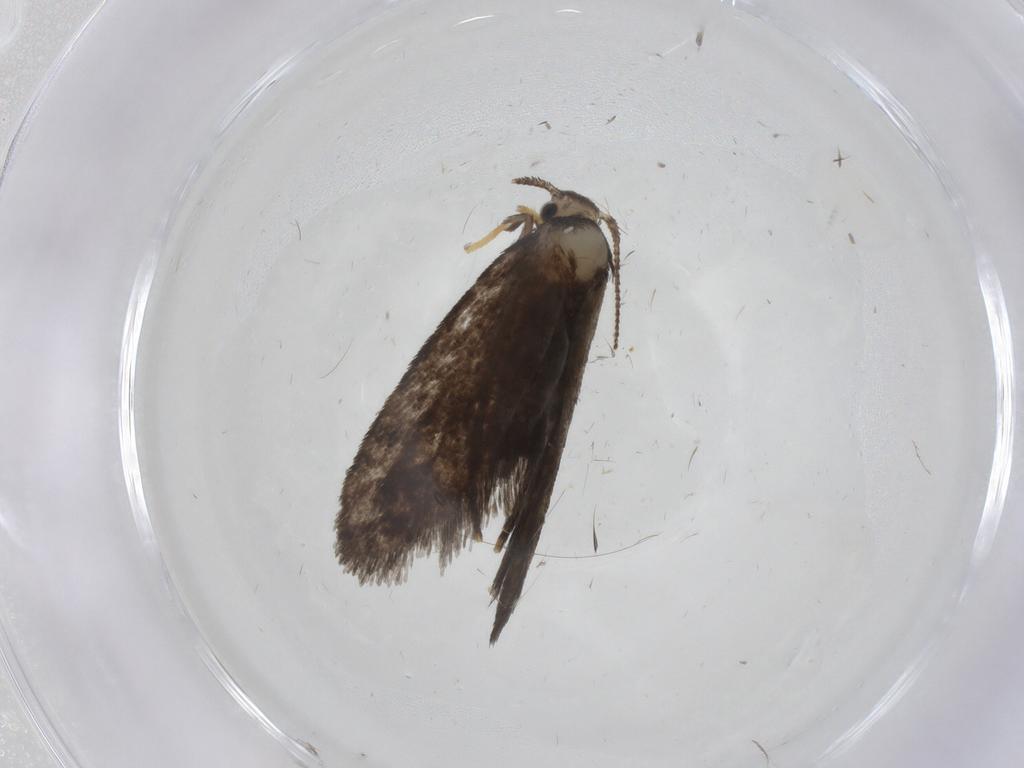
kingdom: Animalia
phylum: Arthropoda
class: Insecta
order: Lepidoptera
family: Psychidae
